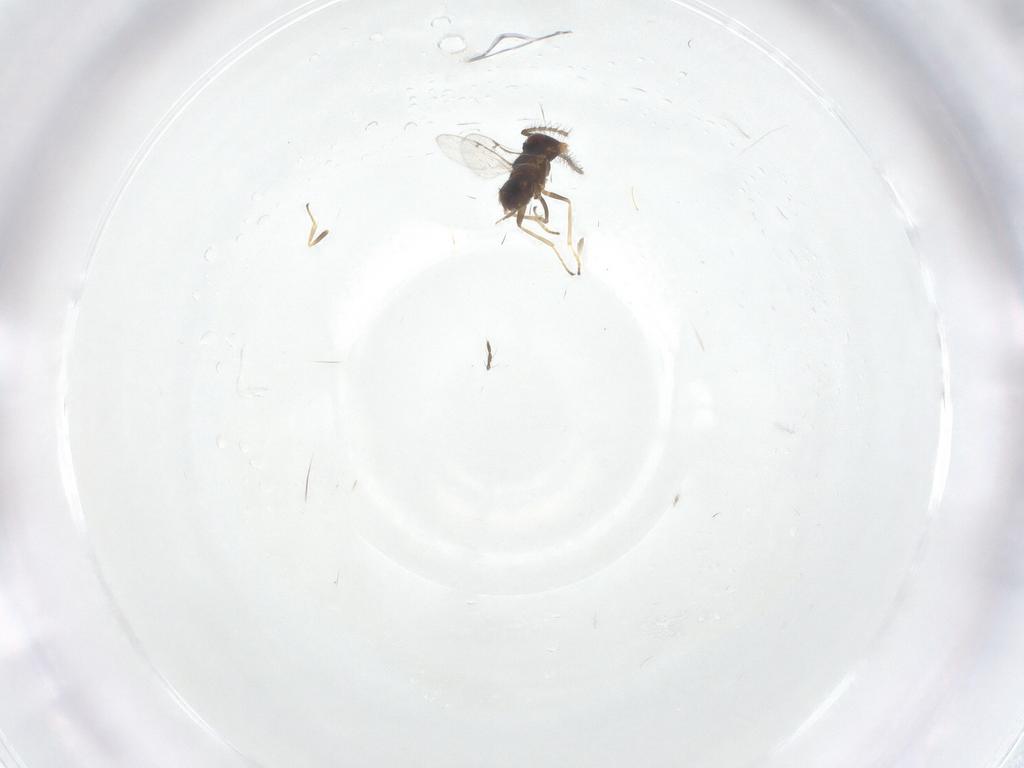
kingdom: Animalia
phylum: Arthropoda
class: Insecta
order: Hymenoptera
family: Encyrtidae
